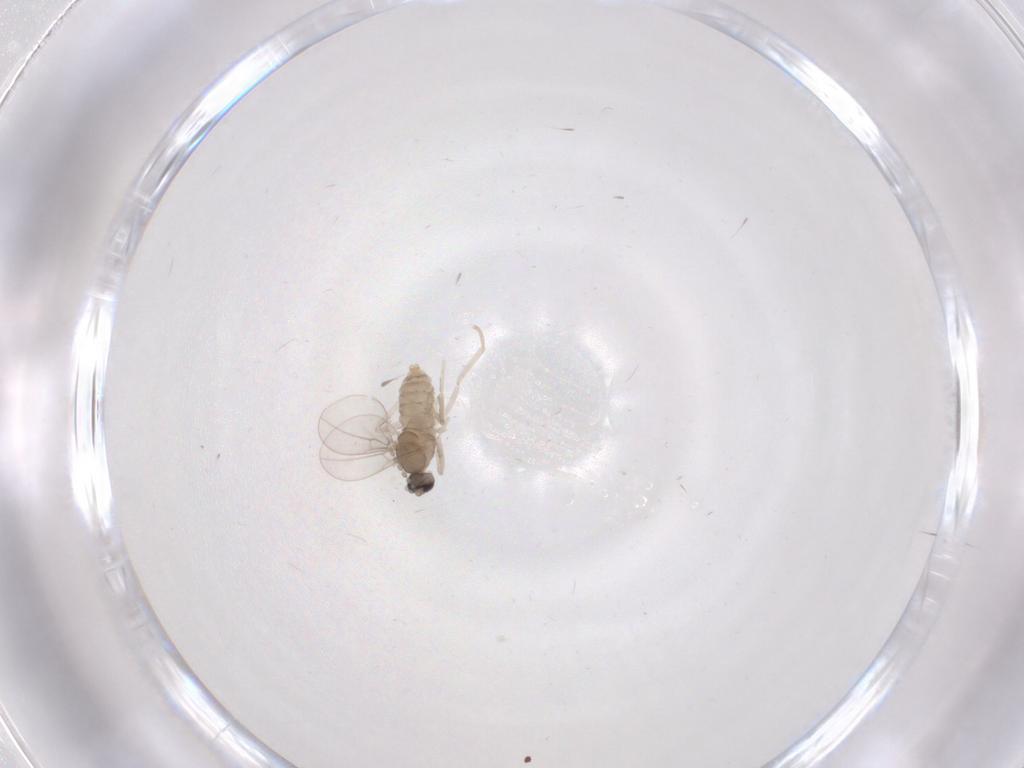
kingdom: Animalia
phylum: Arthropoda
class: Insecta
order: Diptera
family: Cecidomyiidae
